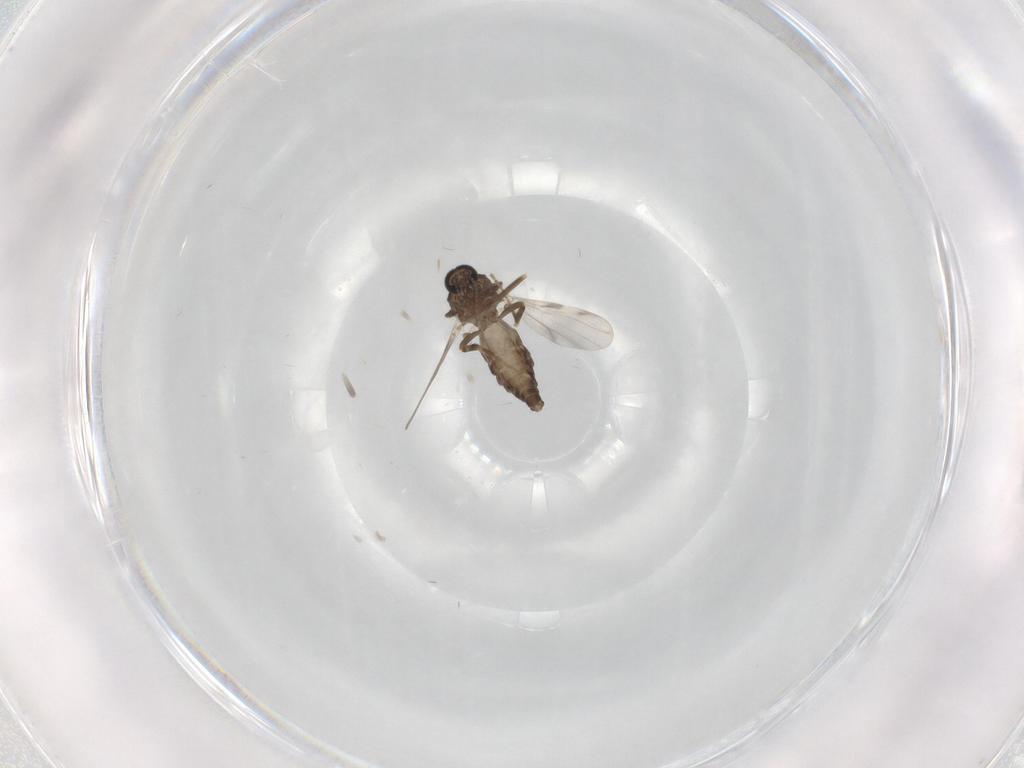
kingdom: Animalia
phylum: Arthropoda
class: Insecta
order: Diptera
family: Ceratopogonidae
